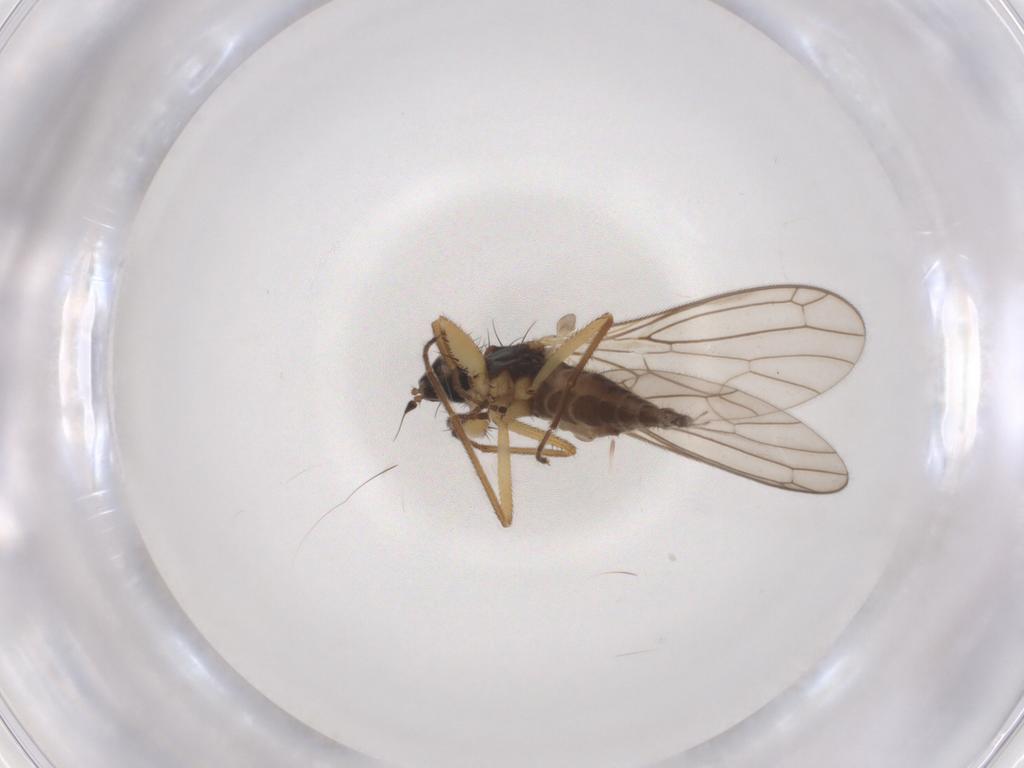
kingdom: Animalia
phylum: Arthropoda
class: Insecta
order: Diptera
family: Empididae
